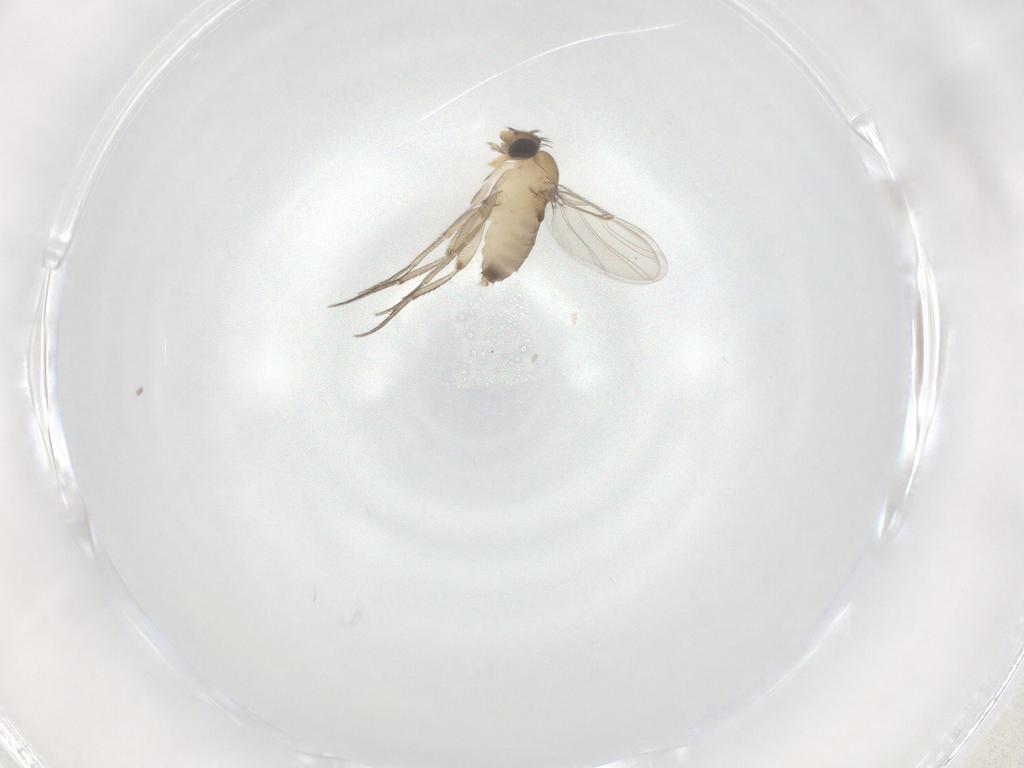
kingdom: Animalia
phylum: Arthropoda
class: Insecta
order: Diptera
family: Phoridae
